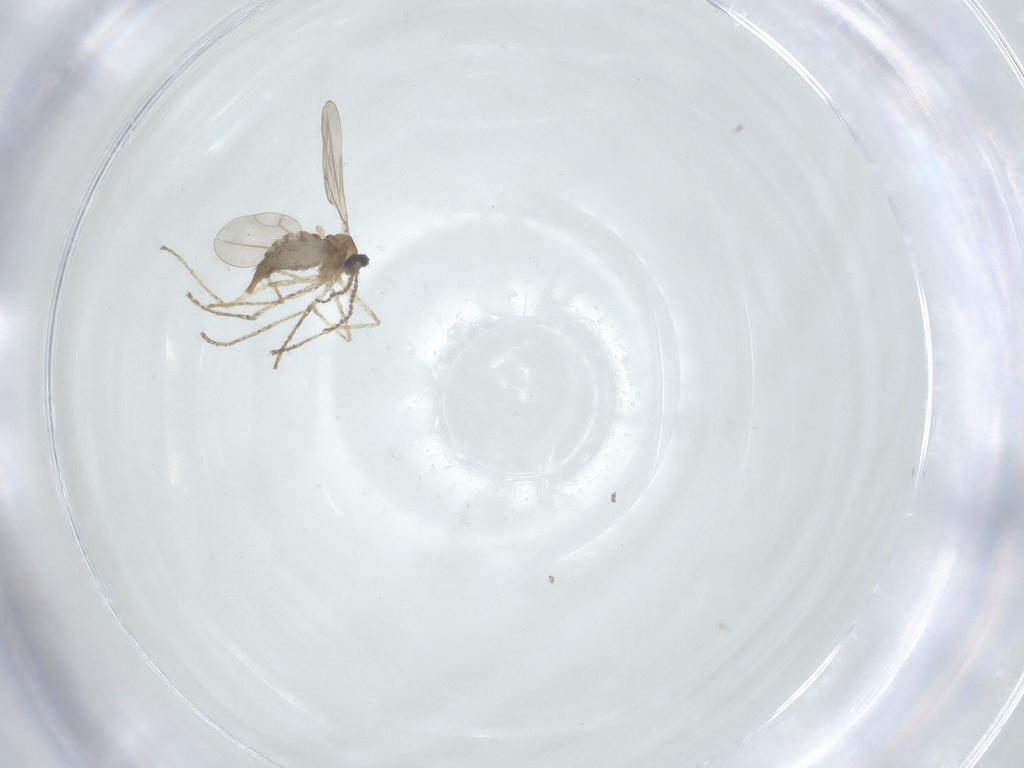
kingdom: Animalia
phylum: Arthropoda
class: Insecta
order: Diptera
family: Cecidomyiidae
